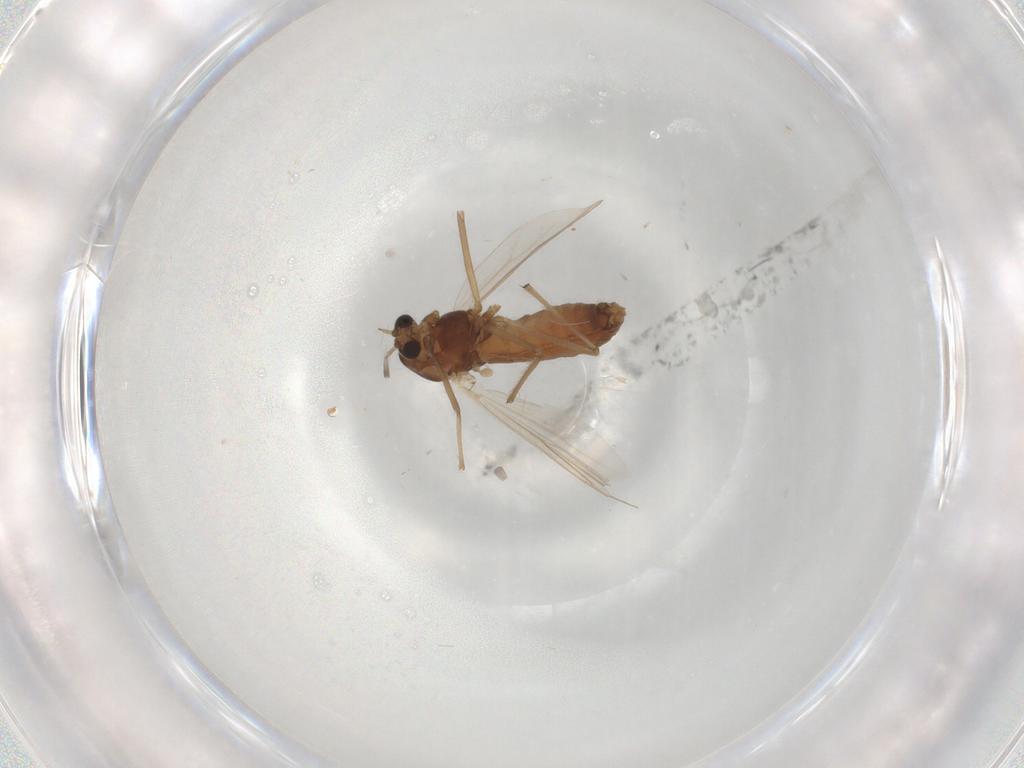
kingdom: Animalia
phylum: Arthropoda
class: Insecta
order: Diptera
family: Chironomidae
